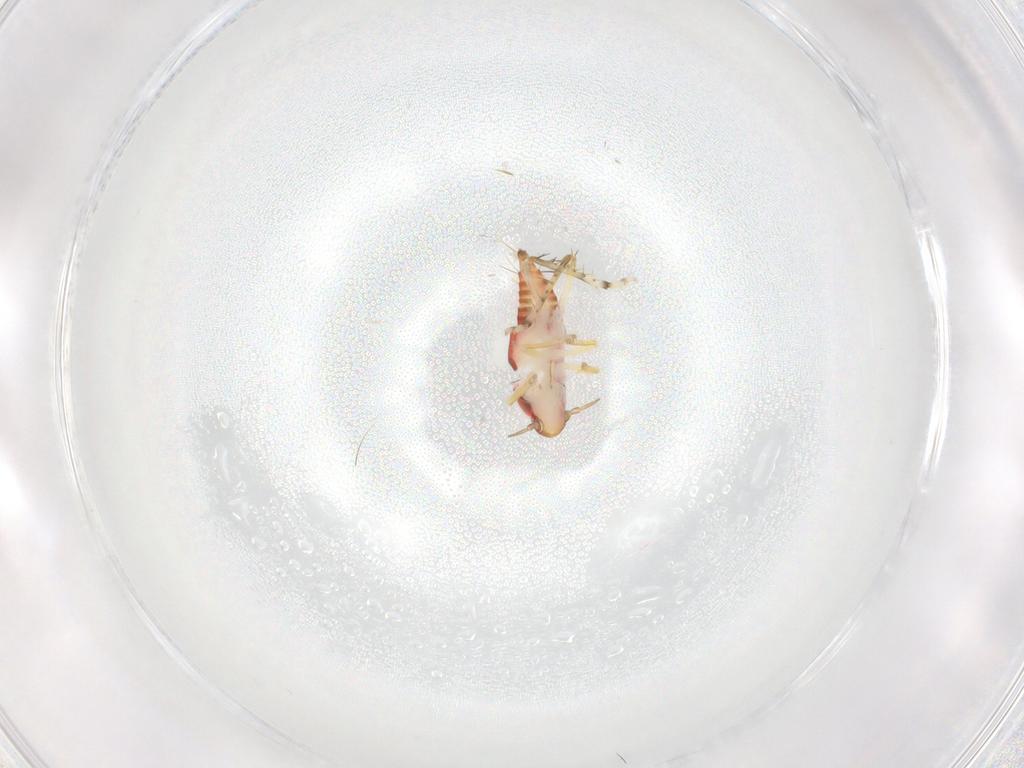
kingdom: Animalia
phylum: Arthropoda
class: Insecta
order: Hemiptera
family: Cicadellidae
